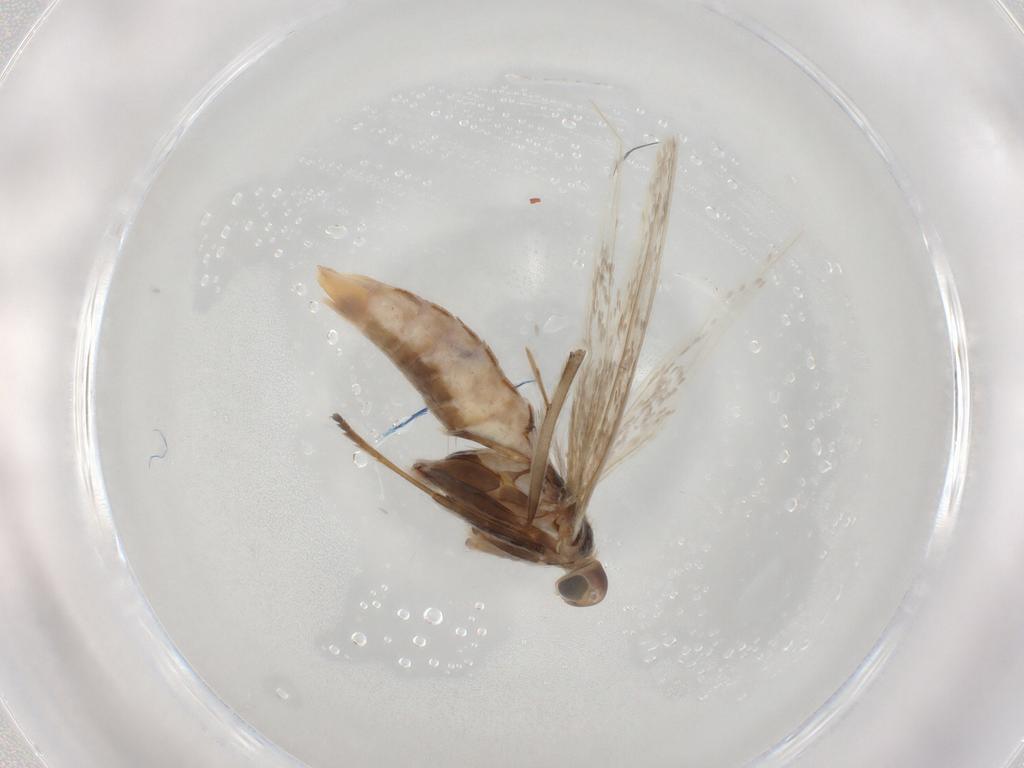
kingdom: Animalia
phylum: Arthropoda
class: Insecta
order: Lepidoptera
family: Coleophoridae
